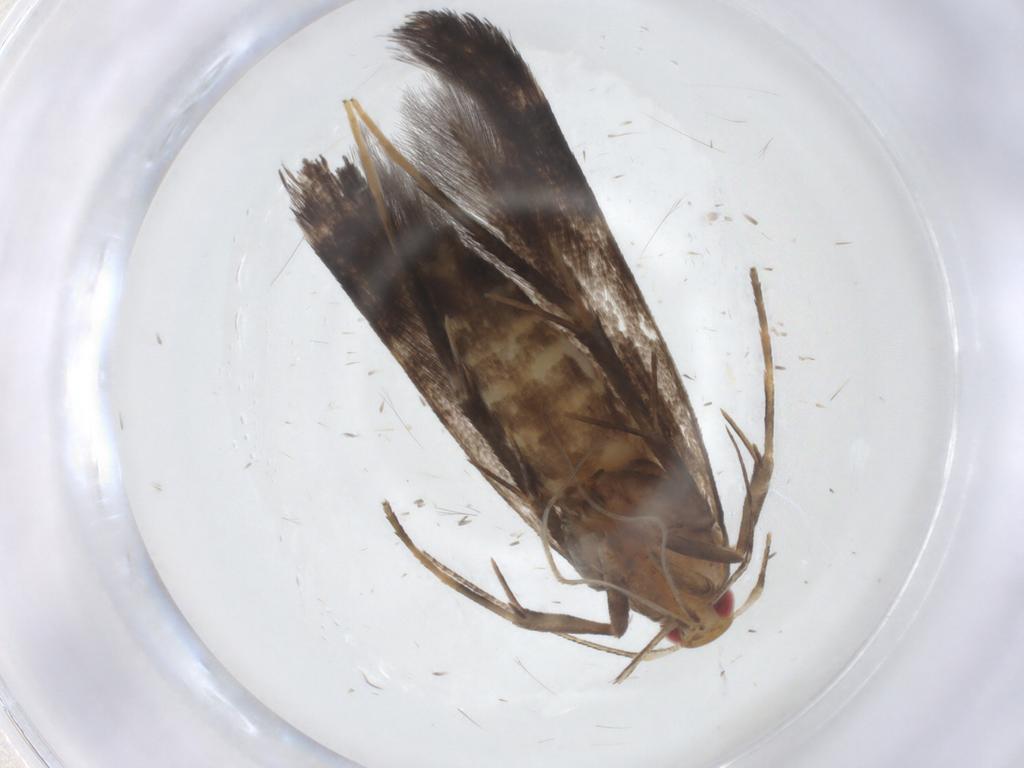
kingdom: Animalia
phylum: Arthropoda
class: Insecta
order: Lepidoptera
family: Cosmopterigidae
